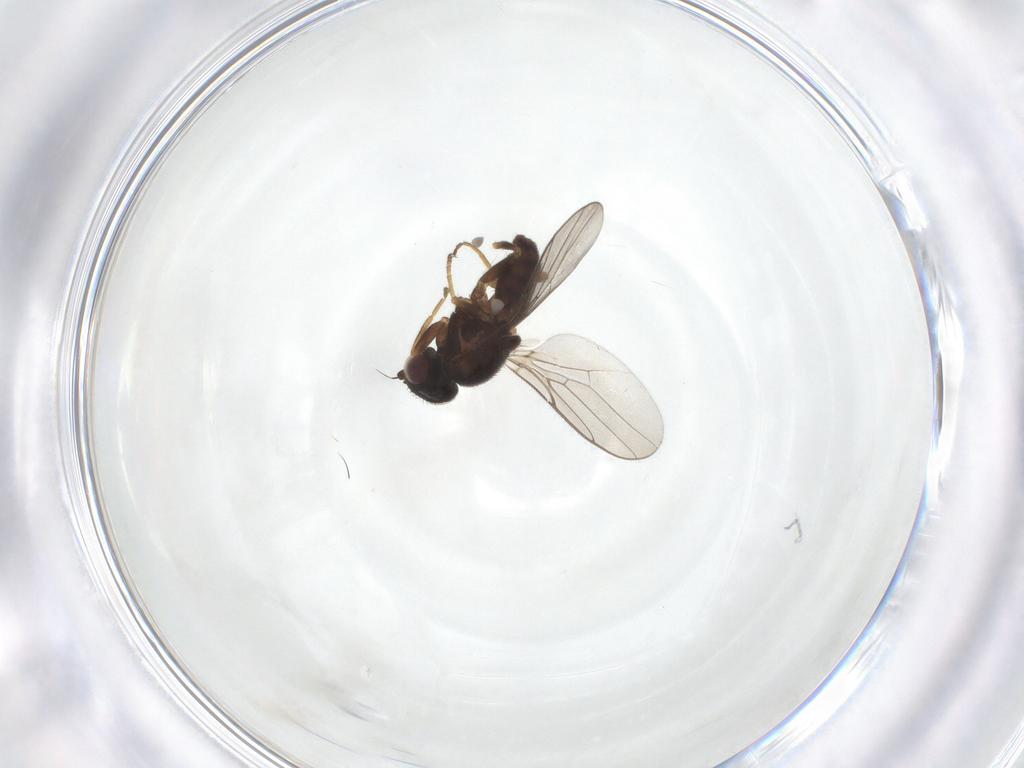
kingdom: Animalia
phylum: Arthropoda
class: Insecta
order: Diptera
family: Chloropidae
